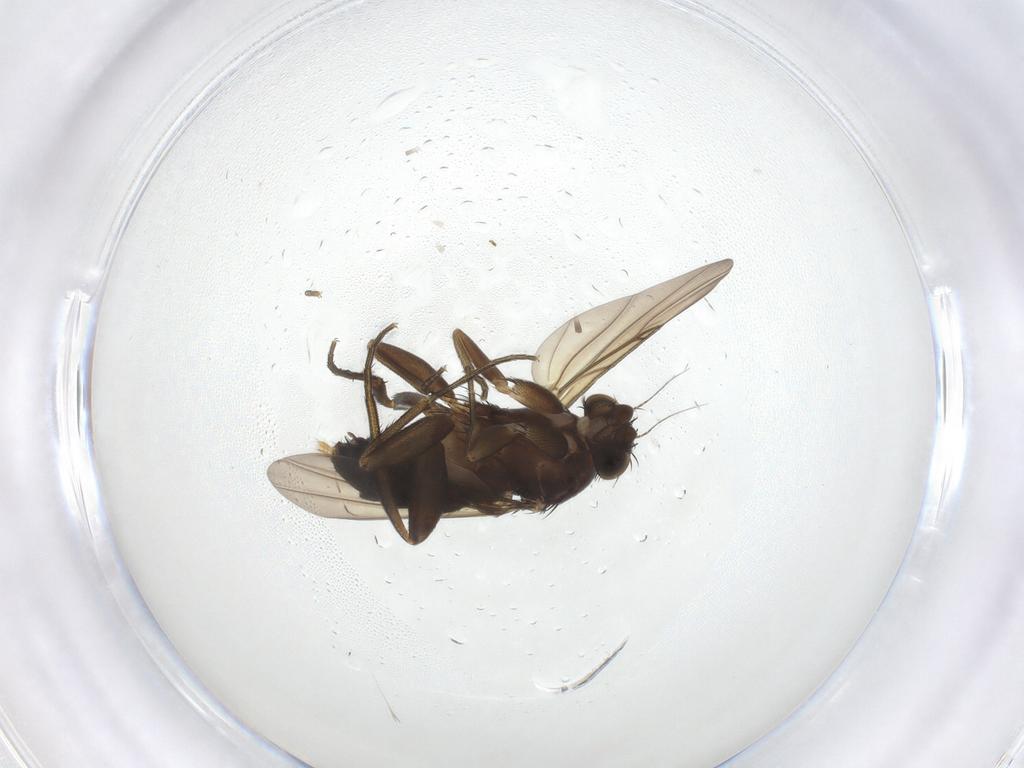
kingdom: Animalia
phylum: Arthropoda
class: Insecta
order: Diptera
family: Phoridae
